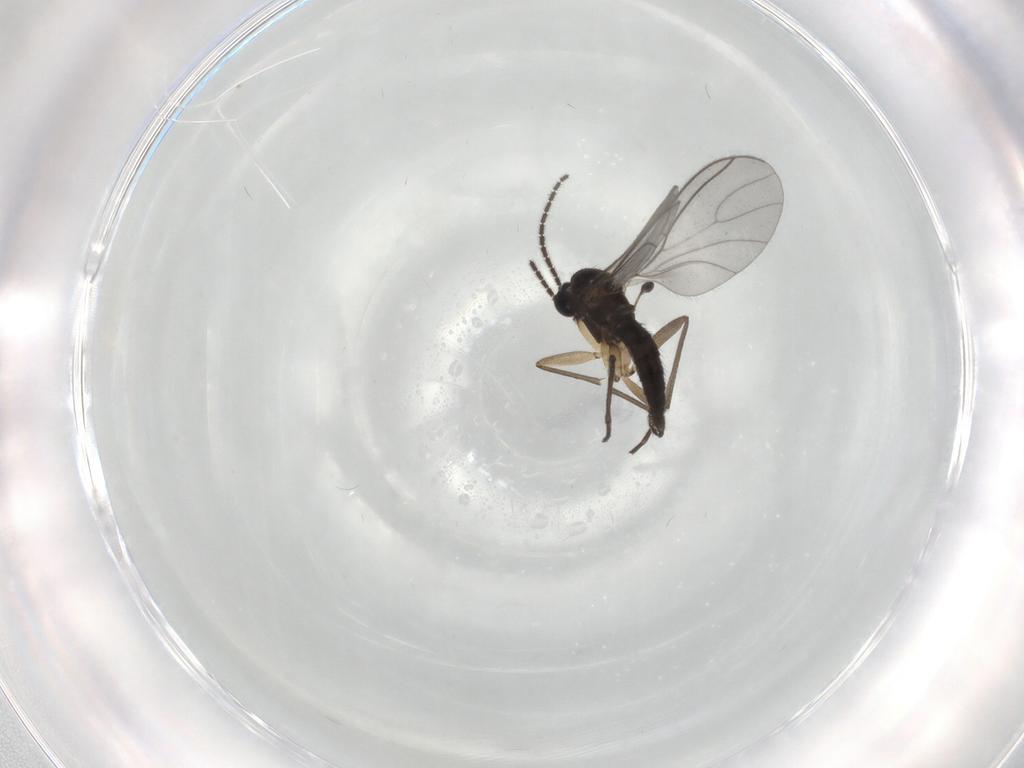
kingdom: Animalia
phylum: Arthropoda
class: Insecta
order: Diptera
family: Sciaridae
